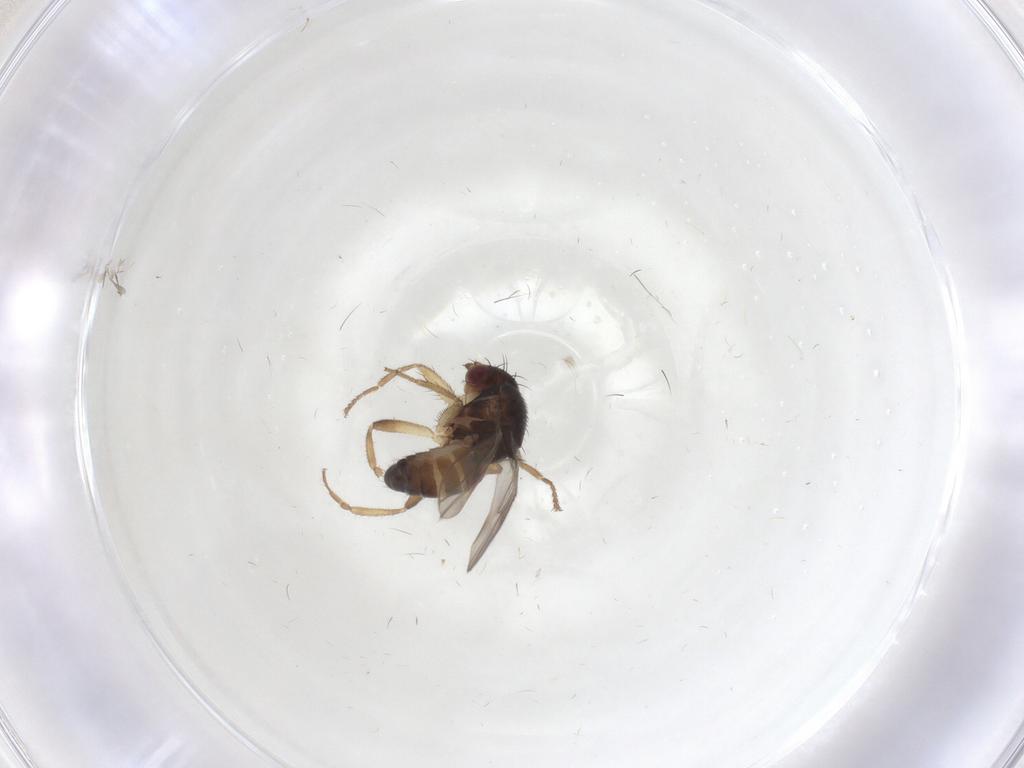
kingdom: Animalia
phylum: Arthropoda
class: Insecta
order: Diptera
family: Sphaeroceridae
